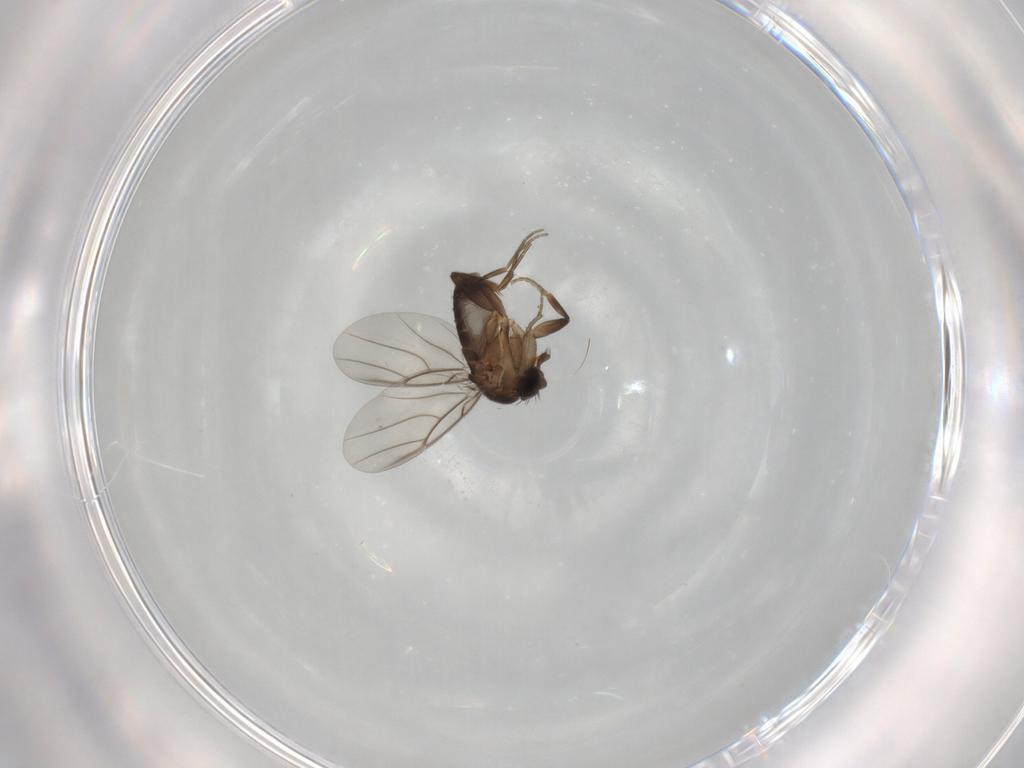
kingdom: Animalia
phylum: Arthropoda
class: Insecta
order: Diptera
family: Phoridae
